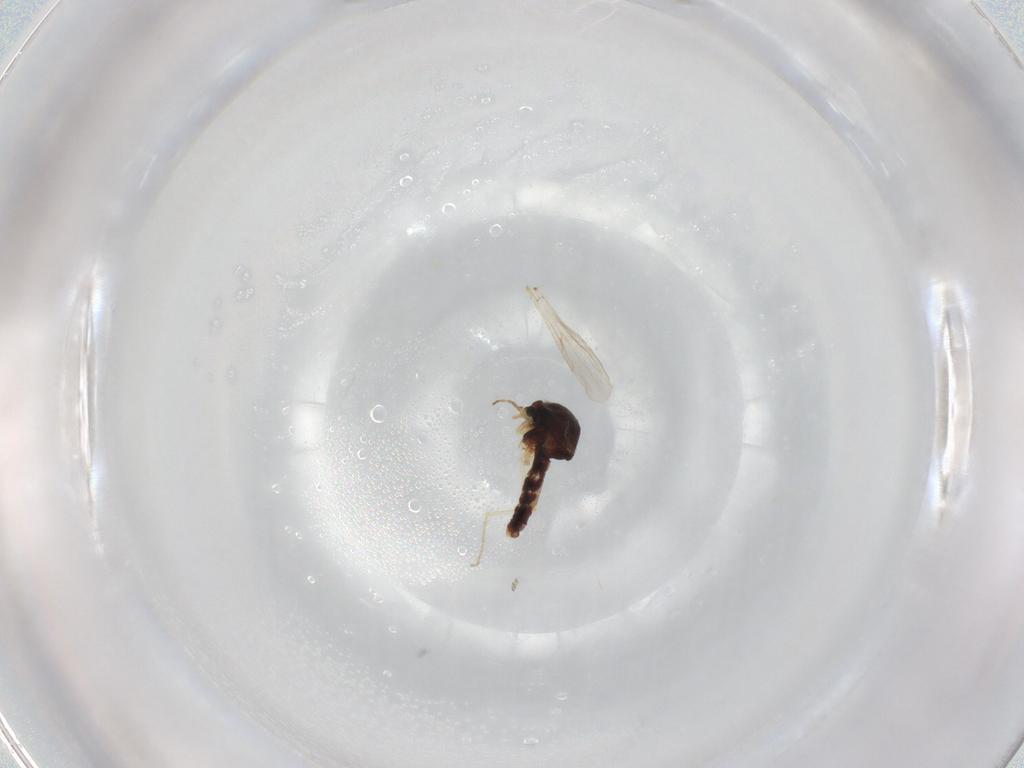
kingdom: Animalia
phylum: Arthropoda
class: Insecta
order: Diptera
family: Ceratopogonidae
